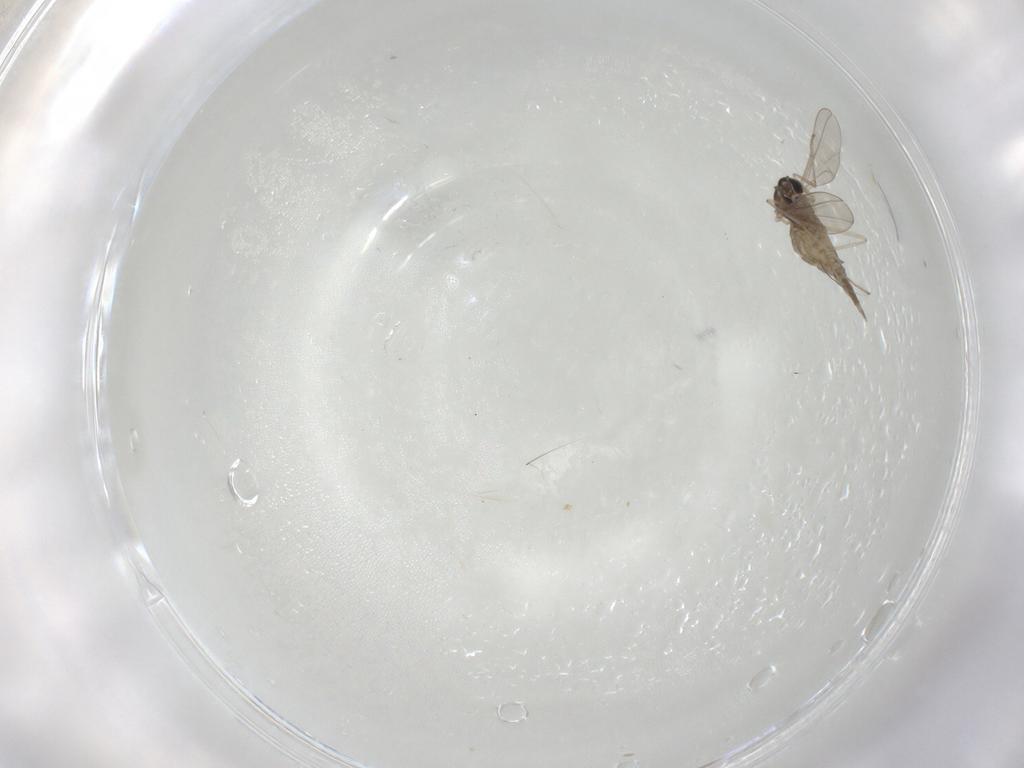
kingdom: Animalia
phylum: Arthropoda
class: Insecta
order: Diptera
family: Cecidomyiidae
